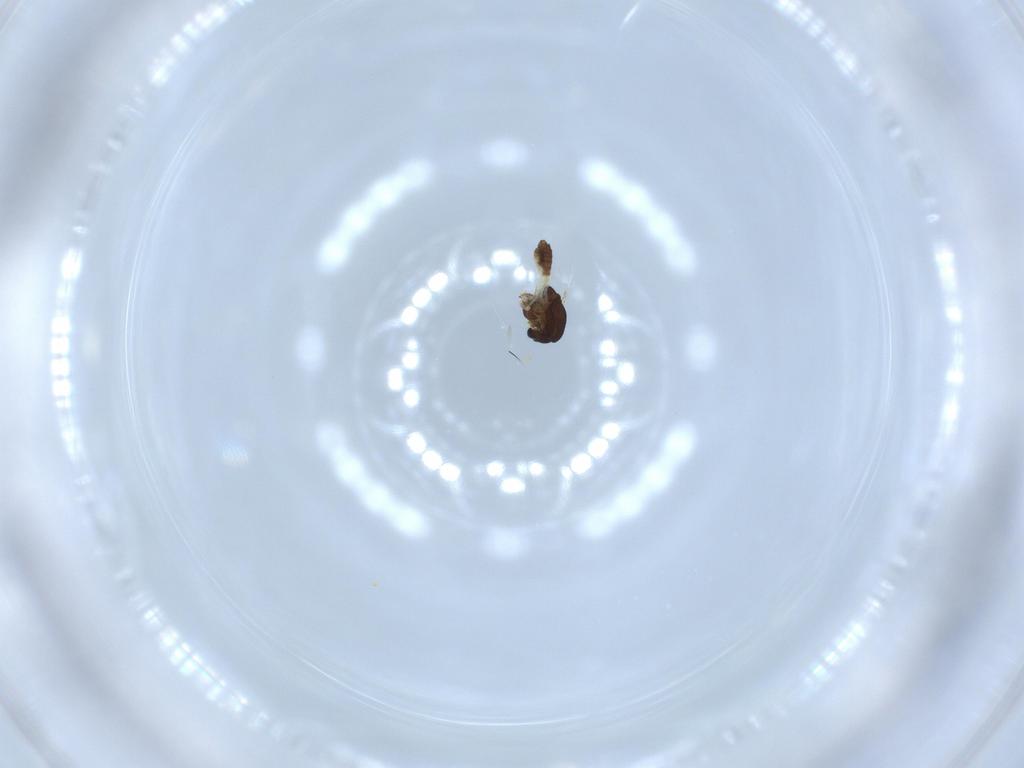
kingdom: Animalia
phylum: Arthropoda
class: Insecta
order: Diptera
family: Chironomidae
